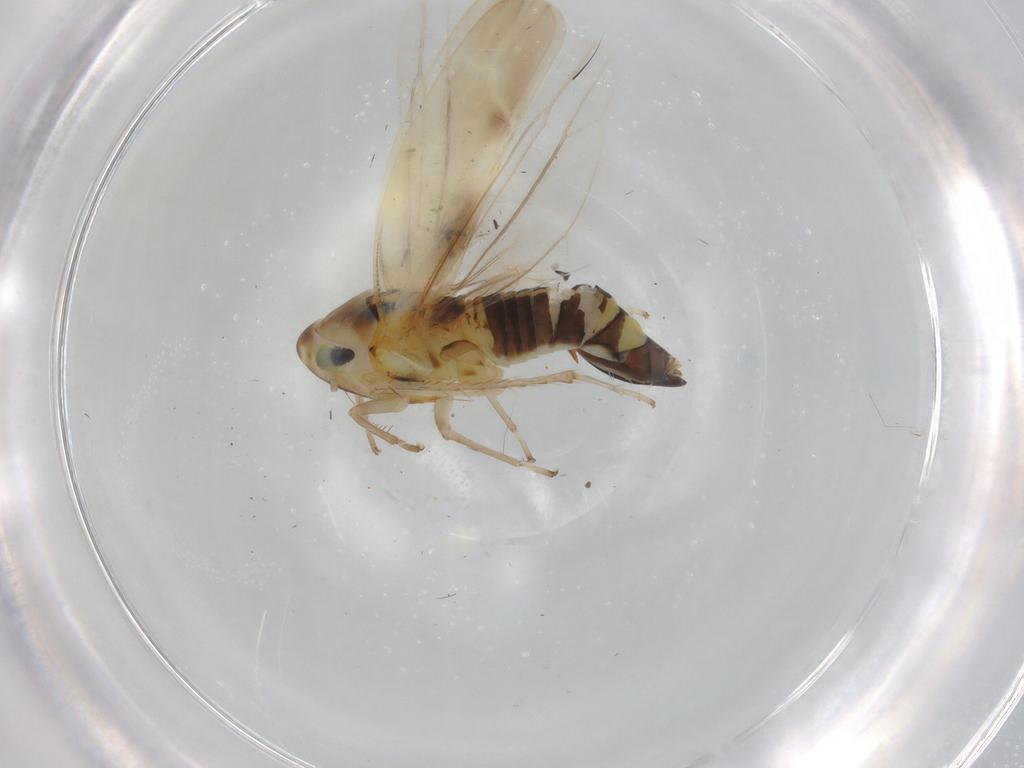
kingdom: Animalia
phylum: Arthropoda
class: Insecta
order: Hemiptera
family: Cicadellidae
